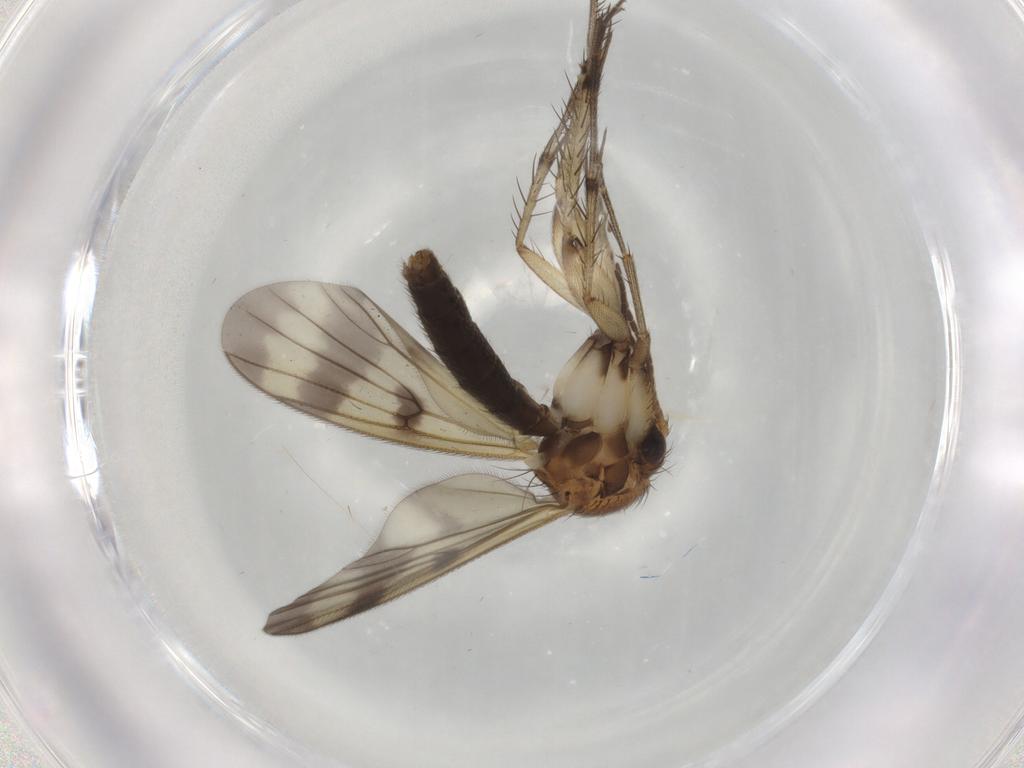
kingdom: Animalia
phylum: Arthropoda
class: Insecta
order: Diptera
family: Mycetophilidae
